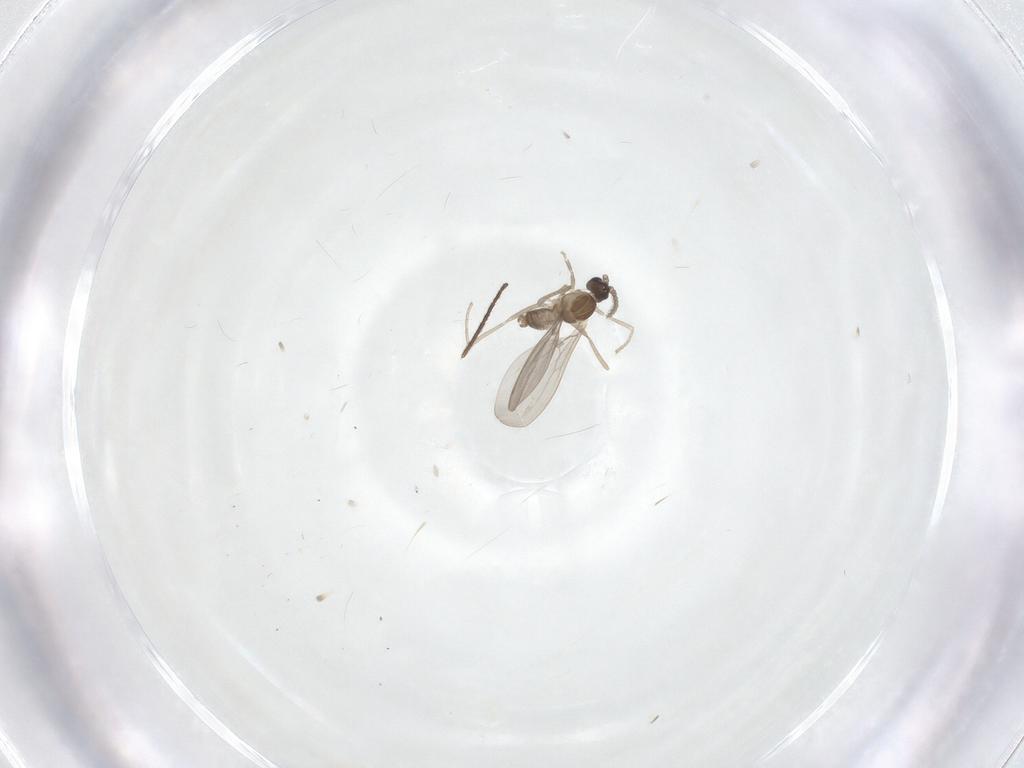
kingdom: Animalia
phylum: Arthropoda
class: Insecta
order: Diptera
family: Cecidomyiidae
